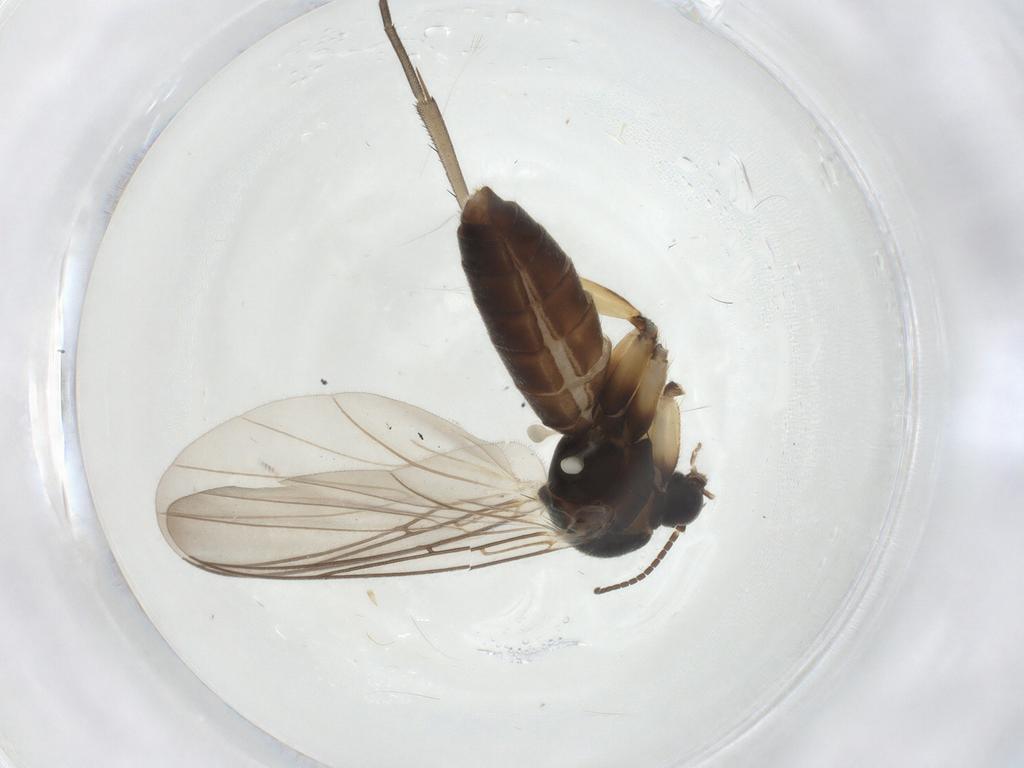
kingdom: Animalia
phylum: Arthropoda
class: Insecta
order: Diptera
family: Mycetophilidae
